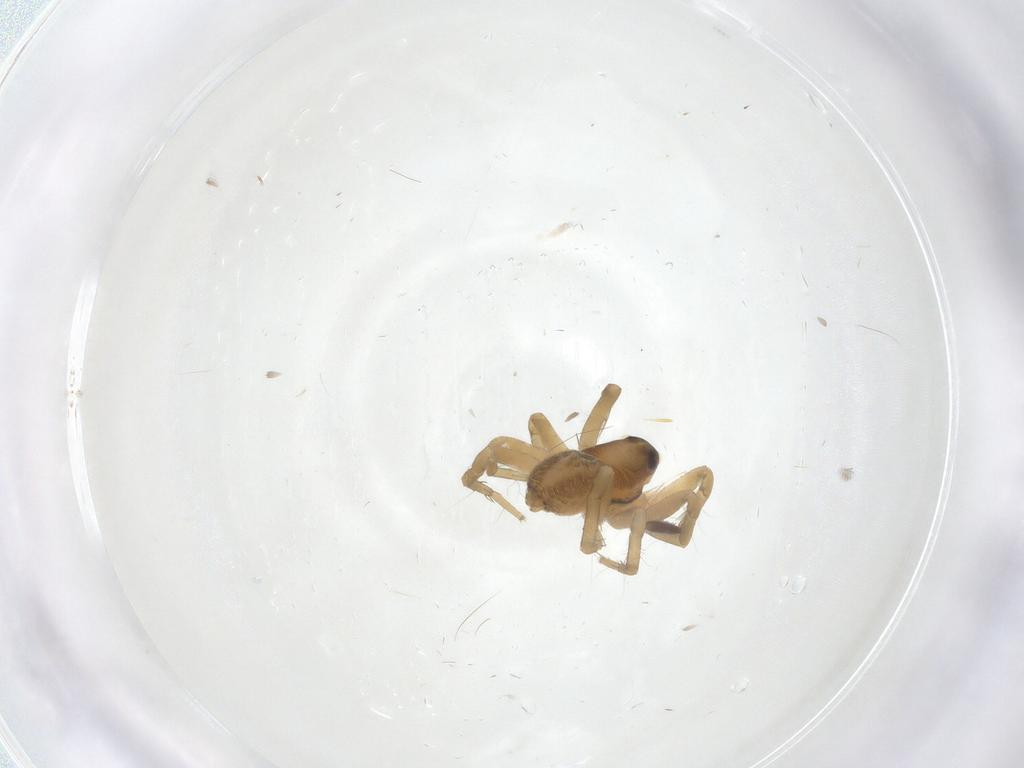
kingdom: Animalia
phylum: Arthropoda
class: Arachnida
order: Araneae
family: Lycosidae
